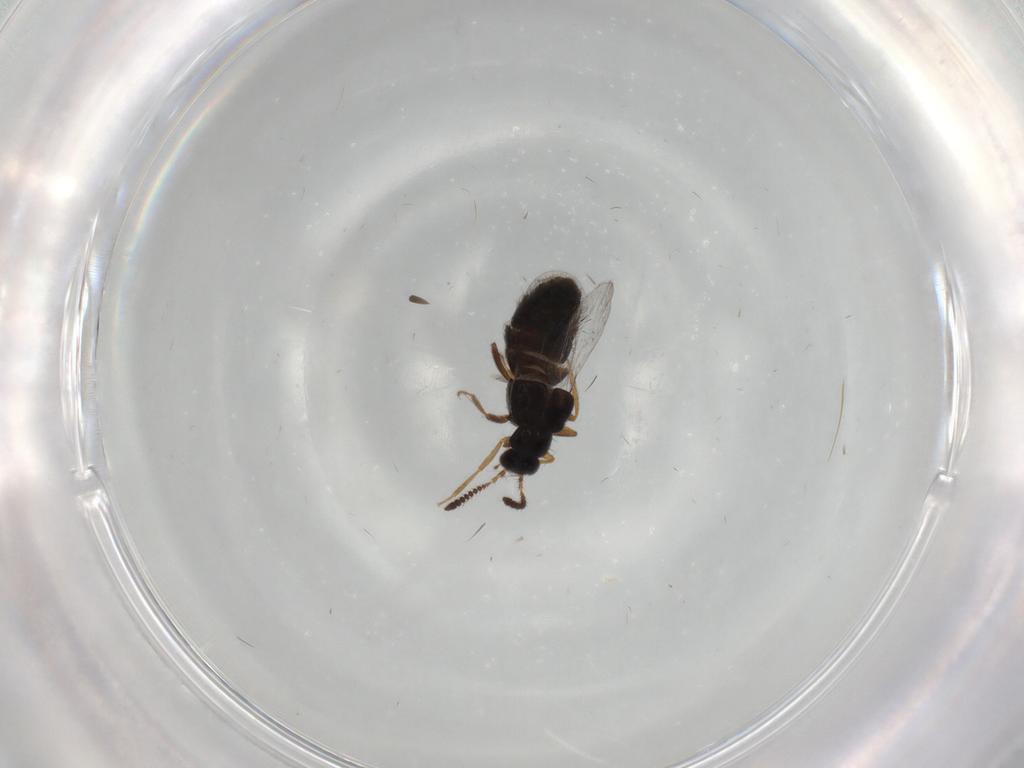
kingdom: Animalia
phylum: Arthropoda
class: Insecta
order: Coleoptera
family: Staphylinidae
